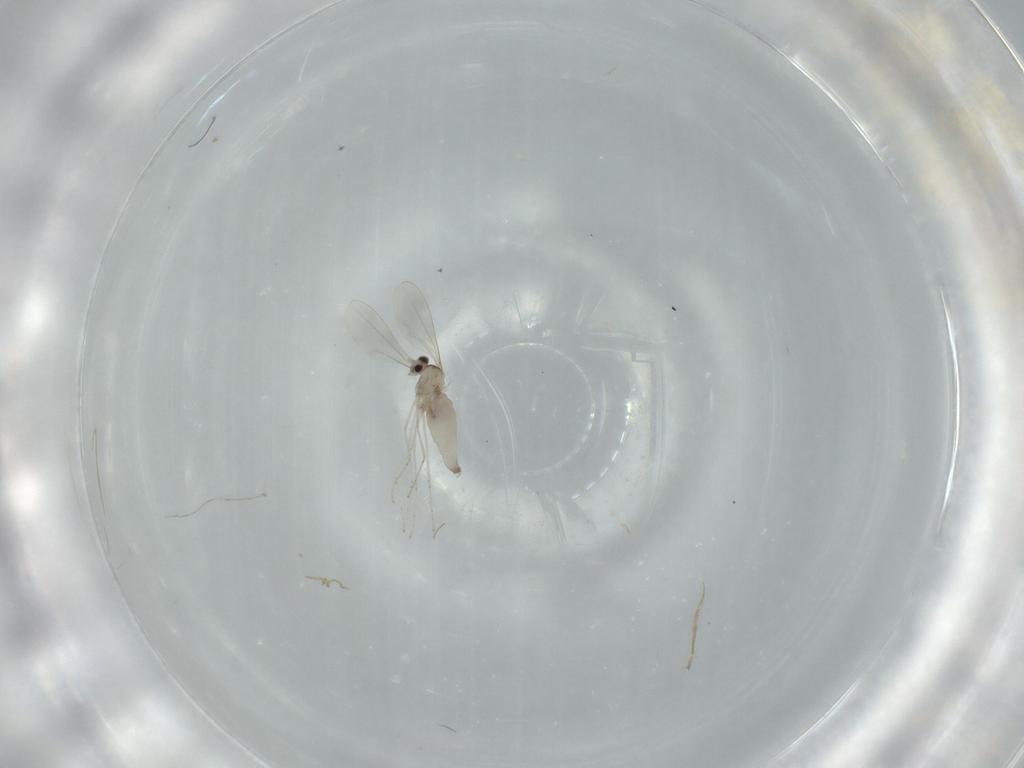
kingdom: Animalia
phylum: Arthropoda
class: Insecta
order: Diptera
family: Cecidomyiidae
